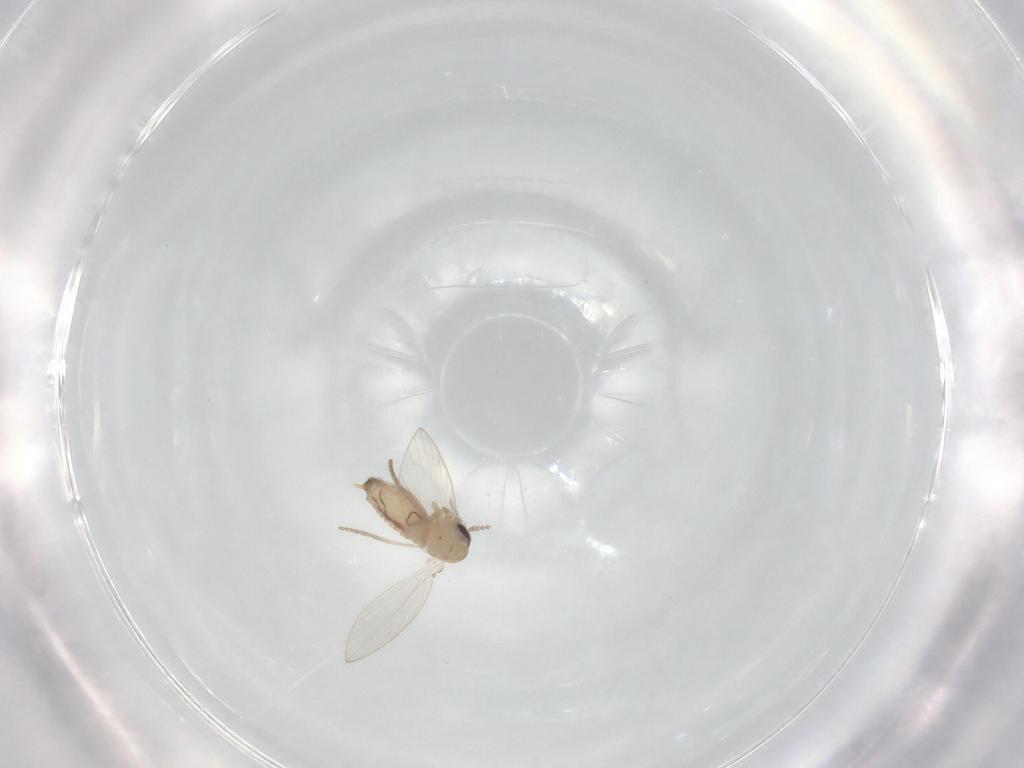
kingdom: Animalia
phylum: Arthropoda
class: Insecta
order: Diptera
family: Psychodidae
